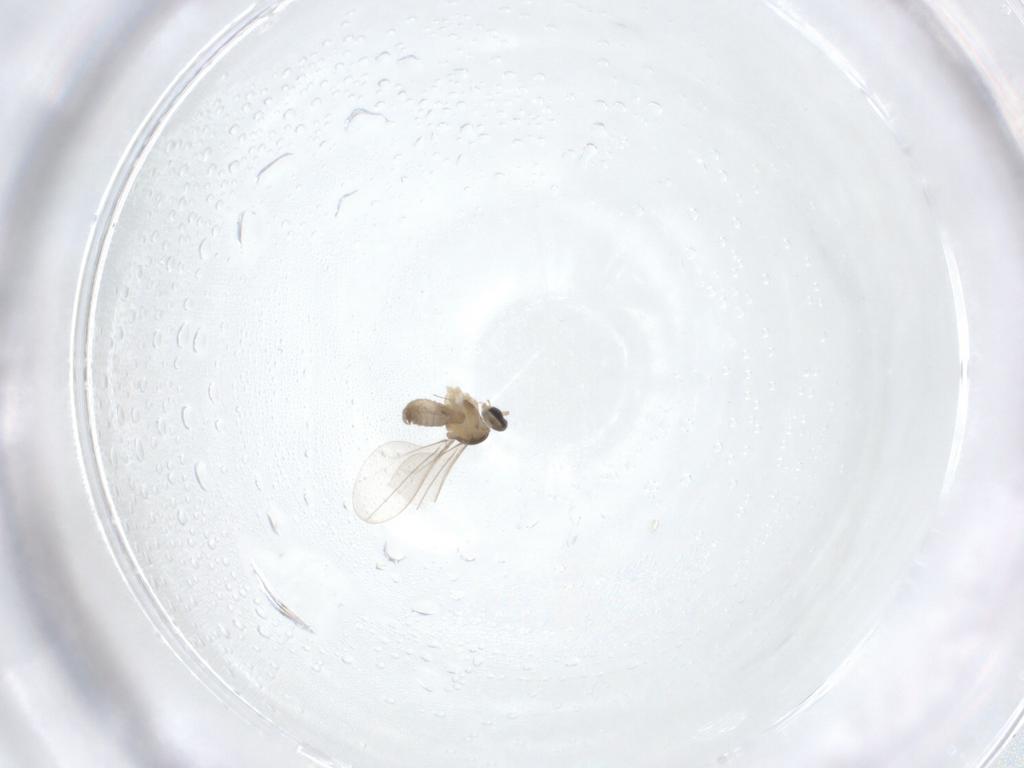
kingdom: Animalia
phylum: Arthropoda
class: Insecta
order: Diptera
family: Cecidomyiidae
